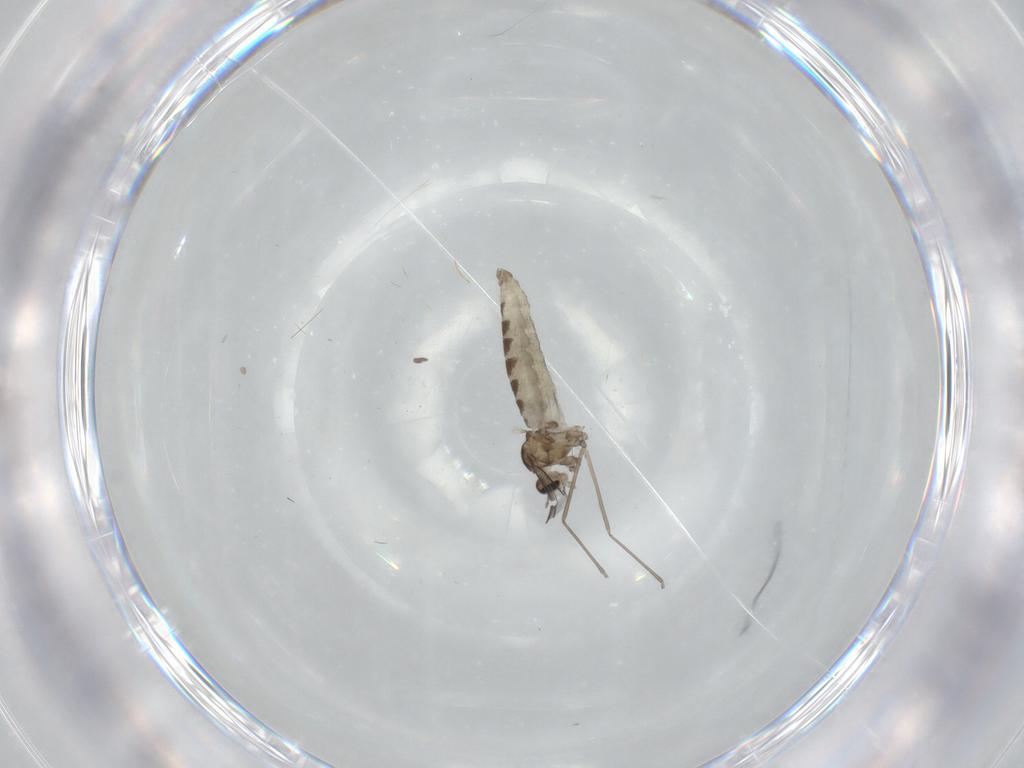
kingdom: Animalia
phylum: Arthropoda
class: Insecta
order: Diptera
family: Cecidomyiidae
